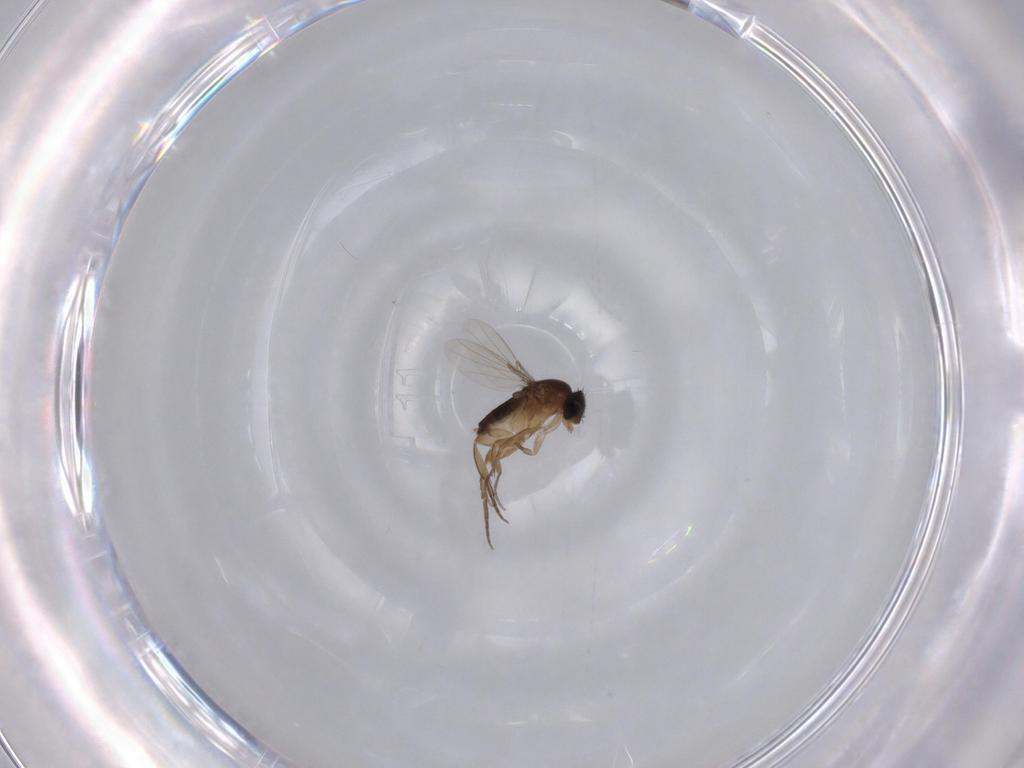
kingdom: Animalia
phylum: Arthropoda
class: Insecta
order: Diptera
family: Phoridae
